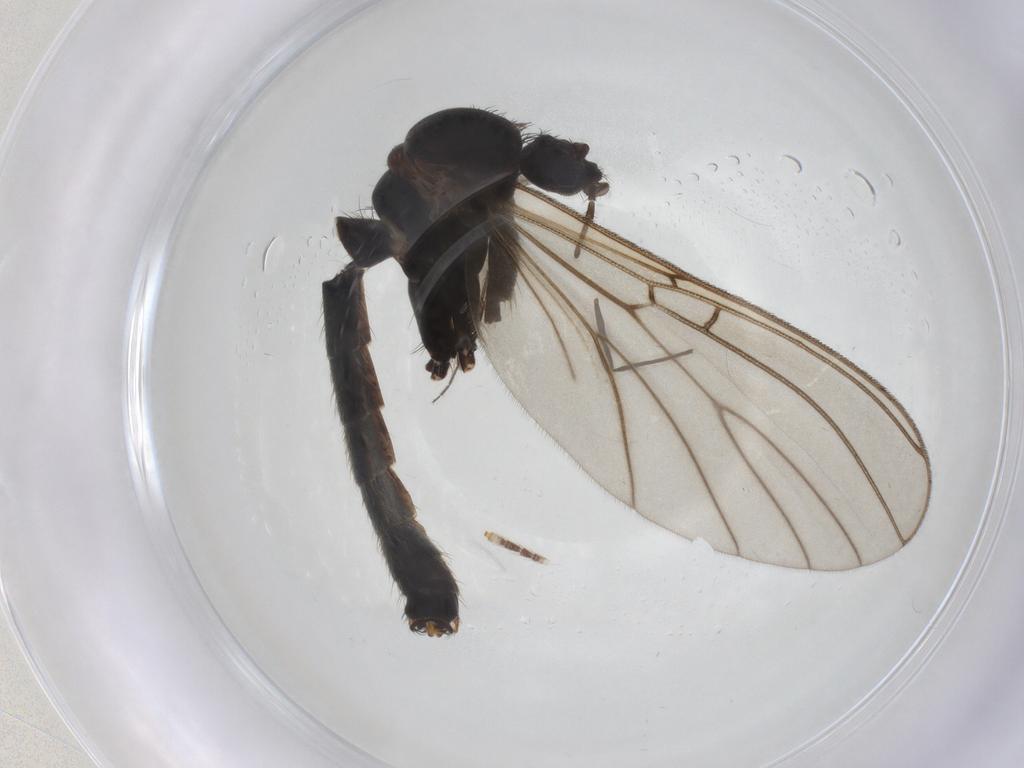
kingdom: Animalia
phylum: Arthropoda
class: Insecta
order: Diptera
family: Mycetophilidae
